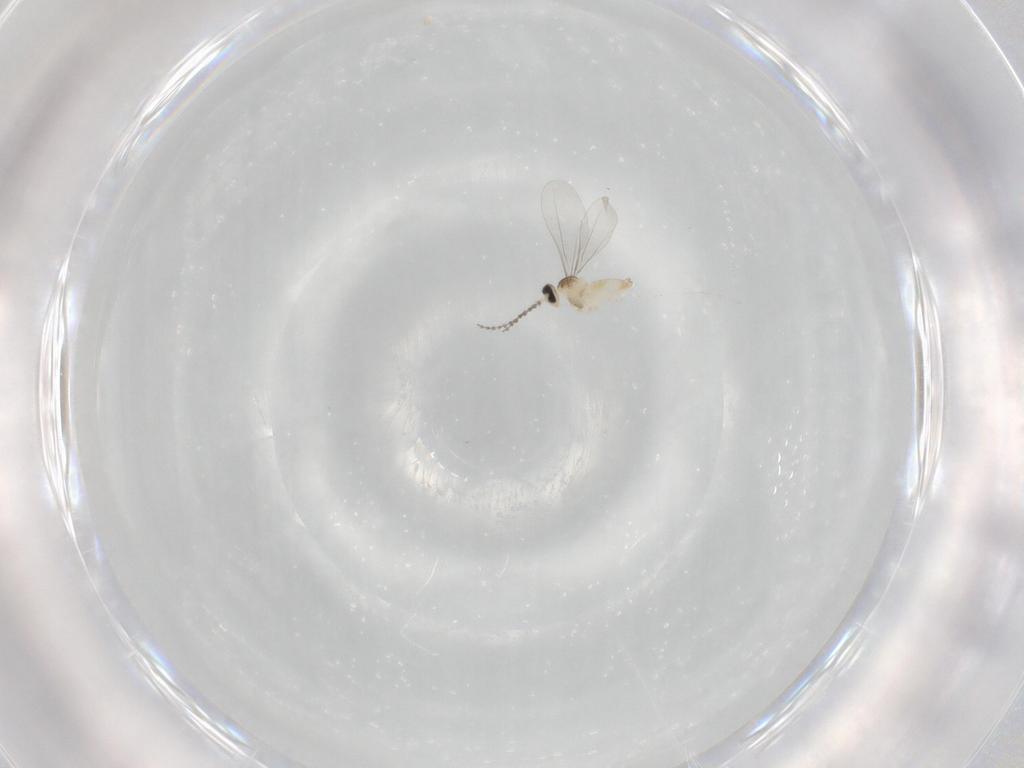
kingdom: Animalia
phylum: Arthropoda
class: Insecta
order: Diptera
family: Cecidomyiidae
